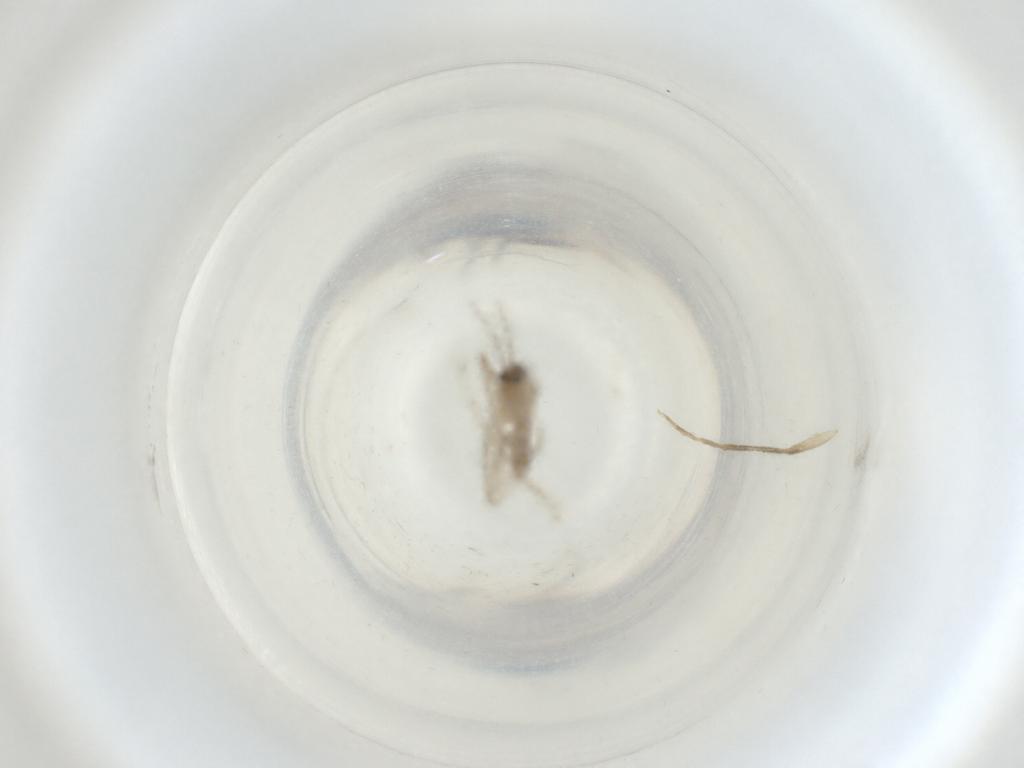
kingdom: Animalia
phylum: Arthropoda
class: Insecta
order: Diptera
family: Psychodidae
